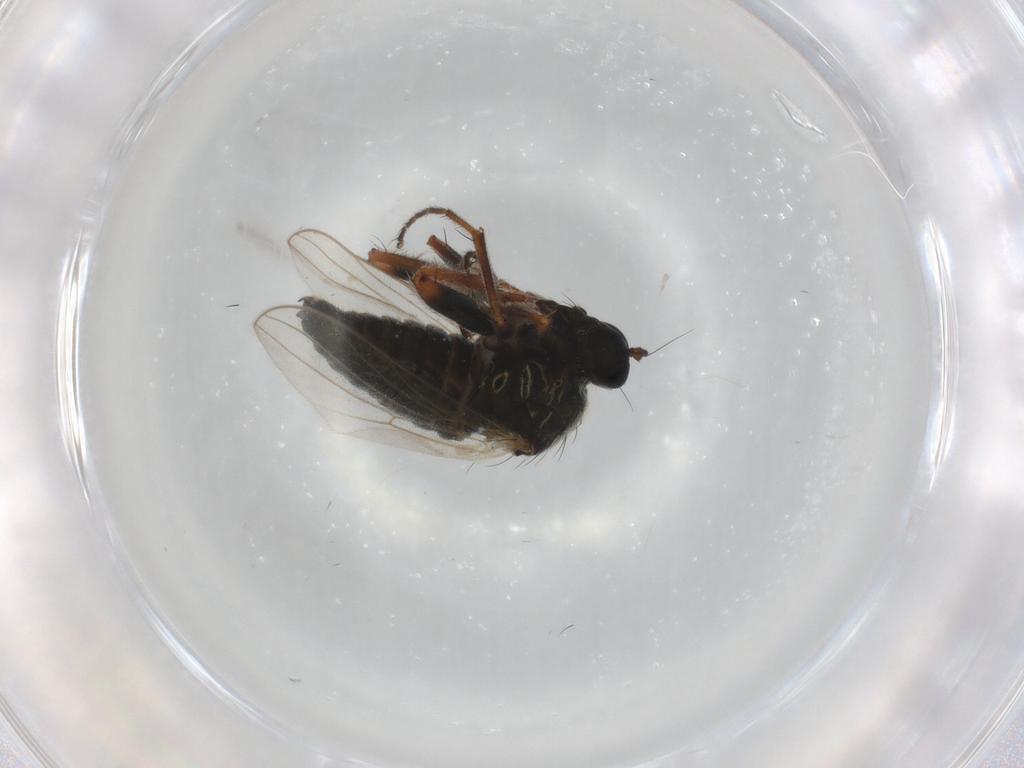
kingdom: Animalia
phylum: Arthropoda
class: Insecta
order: Diptera
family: Hybotidae
